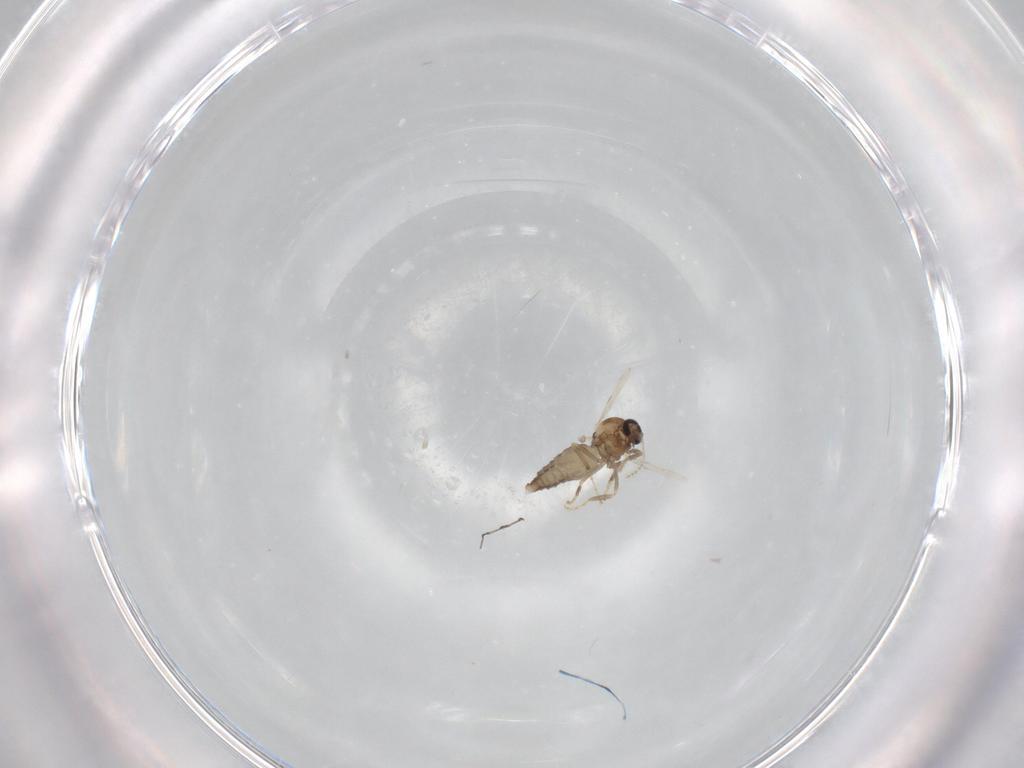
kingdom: Animalia
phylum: Arthropoda
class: Insecta
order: Diptera
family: Ceratopogonidae
